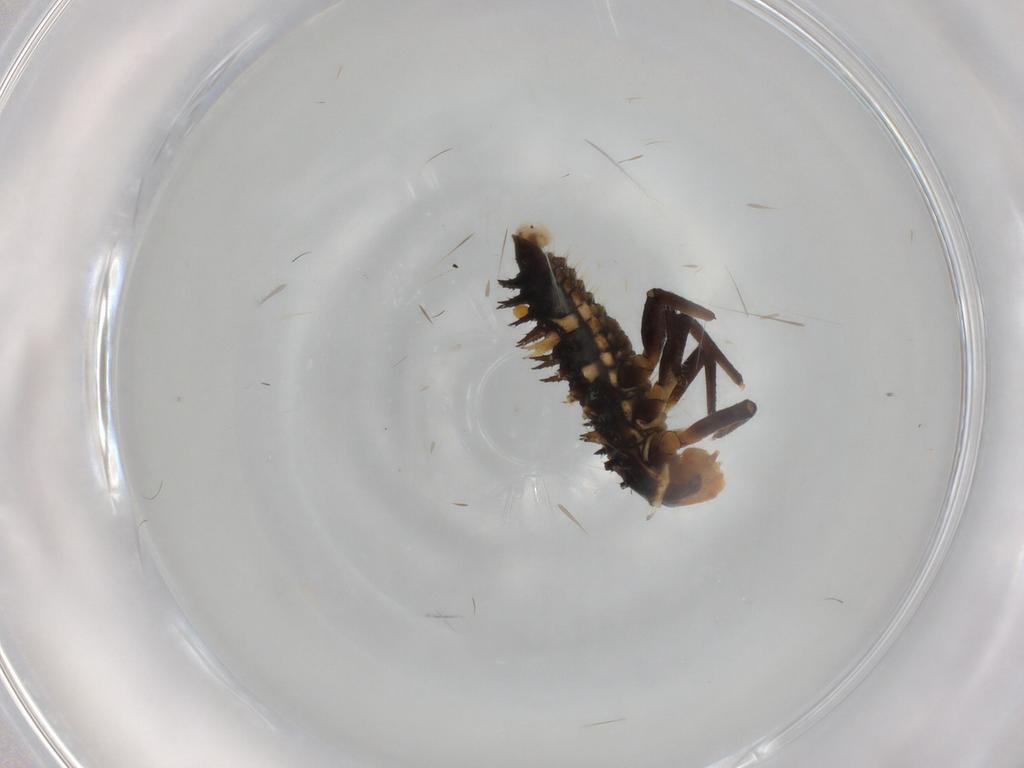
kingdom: Animalia
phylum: Arthropoda
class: Insecta
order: Coleoptera
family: Coccinellidae
